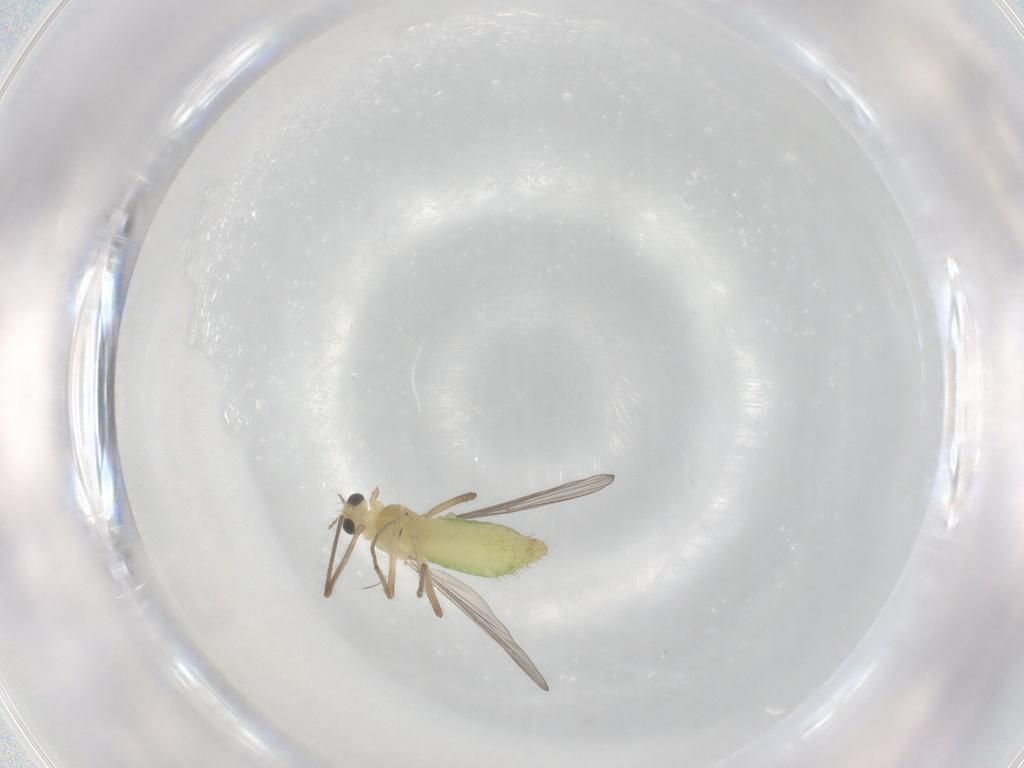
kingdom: Animalia
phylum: Arthropoda
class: Insecta
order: Diptera
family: Chironomidae
